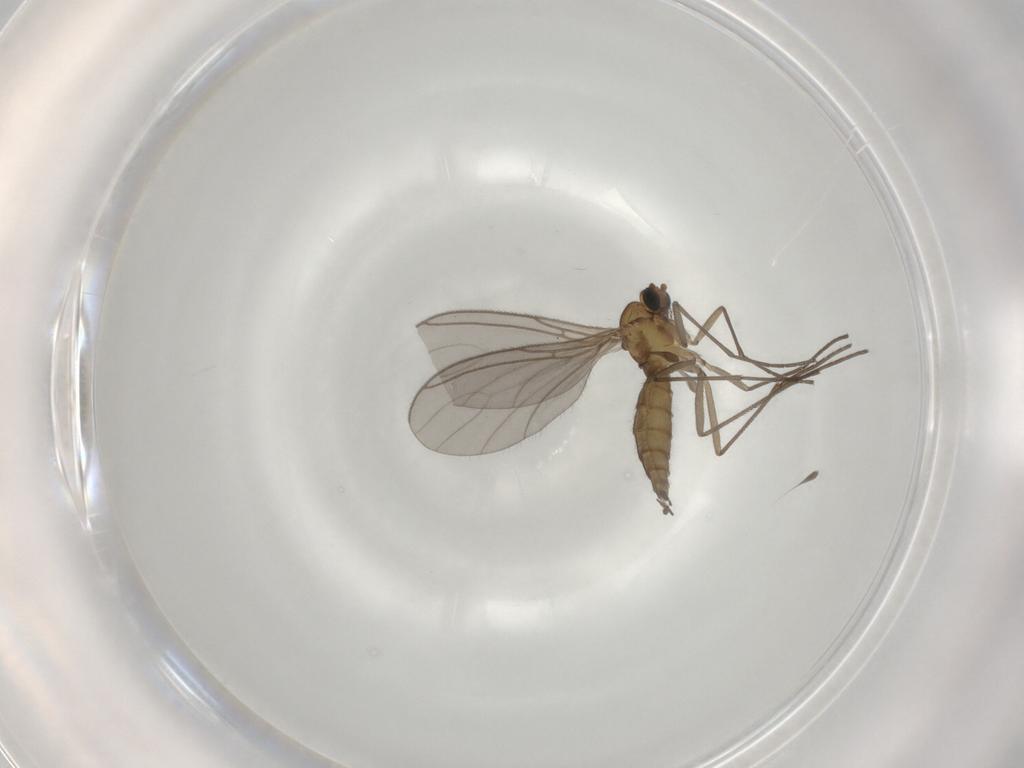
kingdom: Animalia
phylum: Arthropoda
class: Insecta
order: Diptera
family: Sciaridae
